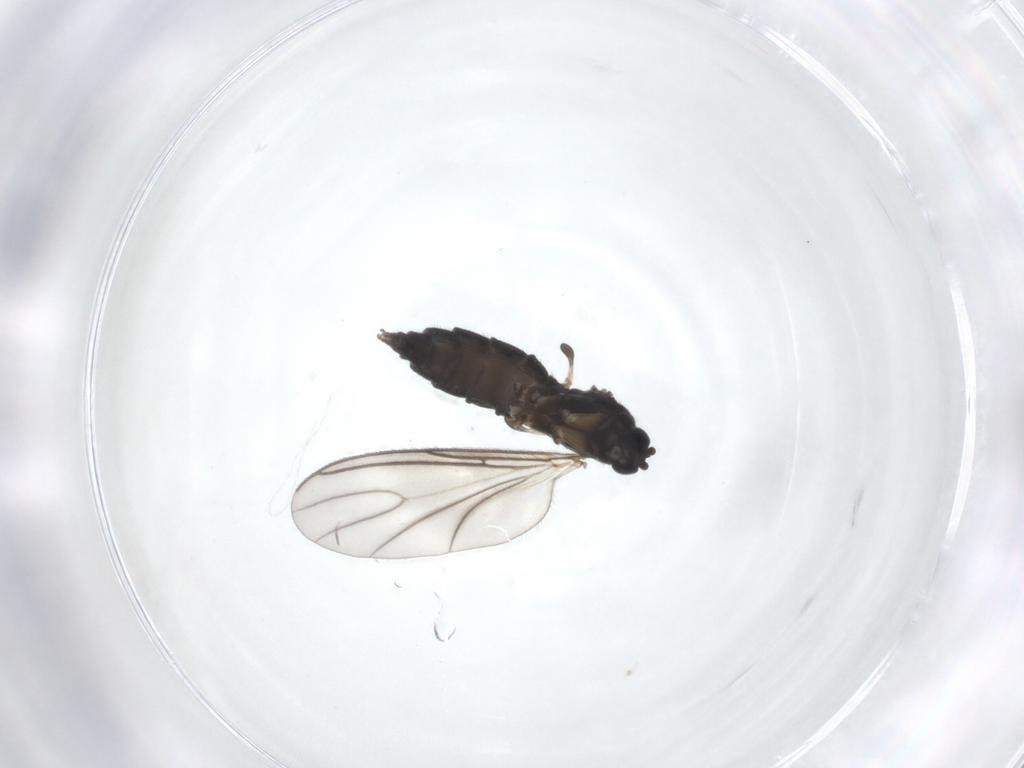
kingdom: Animalia
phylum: Arthropoda
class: Insecta
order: Diptera
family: Sciaridae
